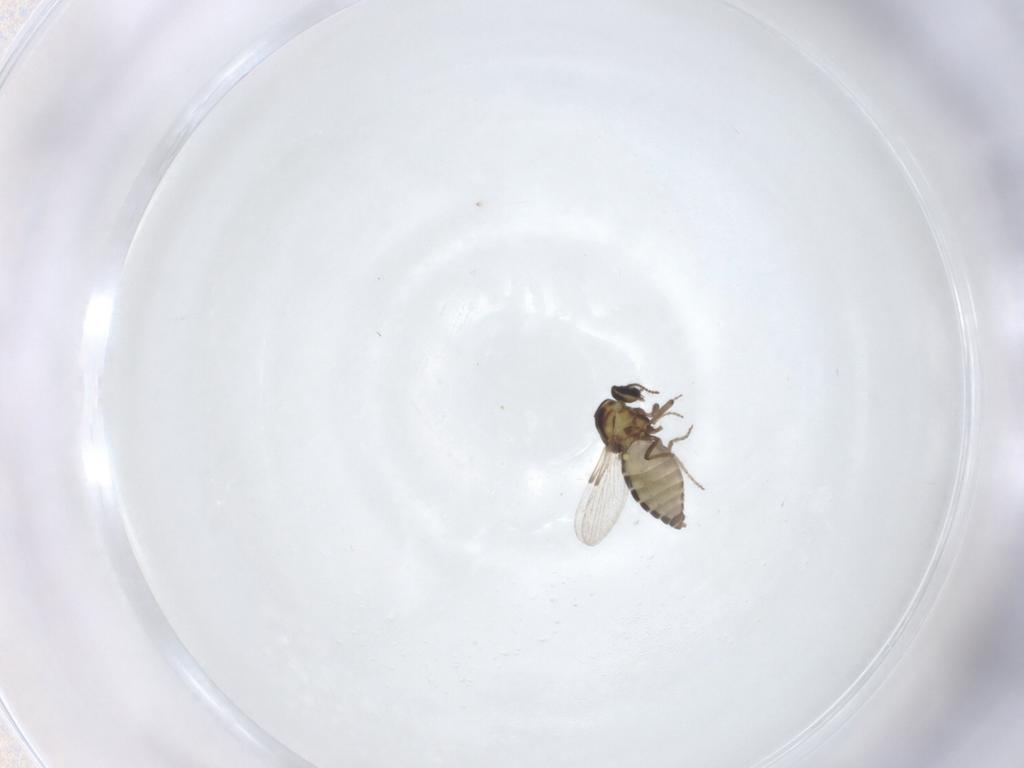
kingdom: Animalia
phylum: Arthropoda
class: Insecta
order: Diptera
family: Ceratopogonidae
